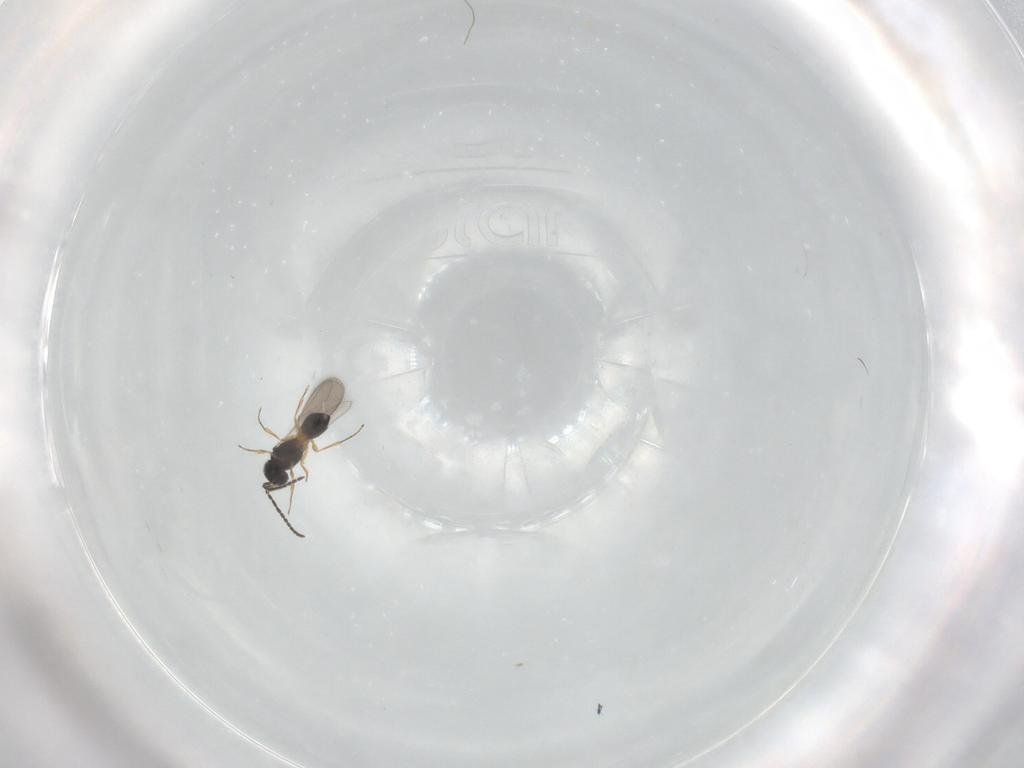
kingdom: Animalia
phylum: Arthropoda
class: Insecta
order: Hymenoptera
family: Scelionidae
